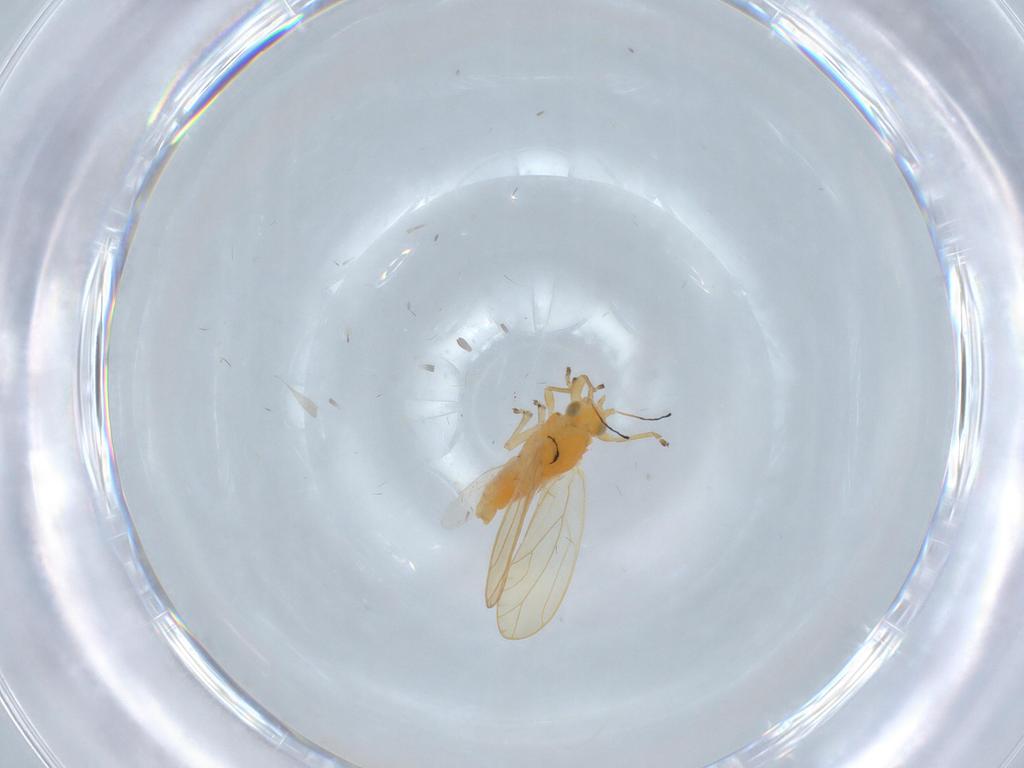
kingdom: Animalia
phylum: Arthropoda
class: Insecta
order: Hemiptera
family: Triozidae
